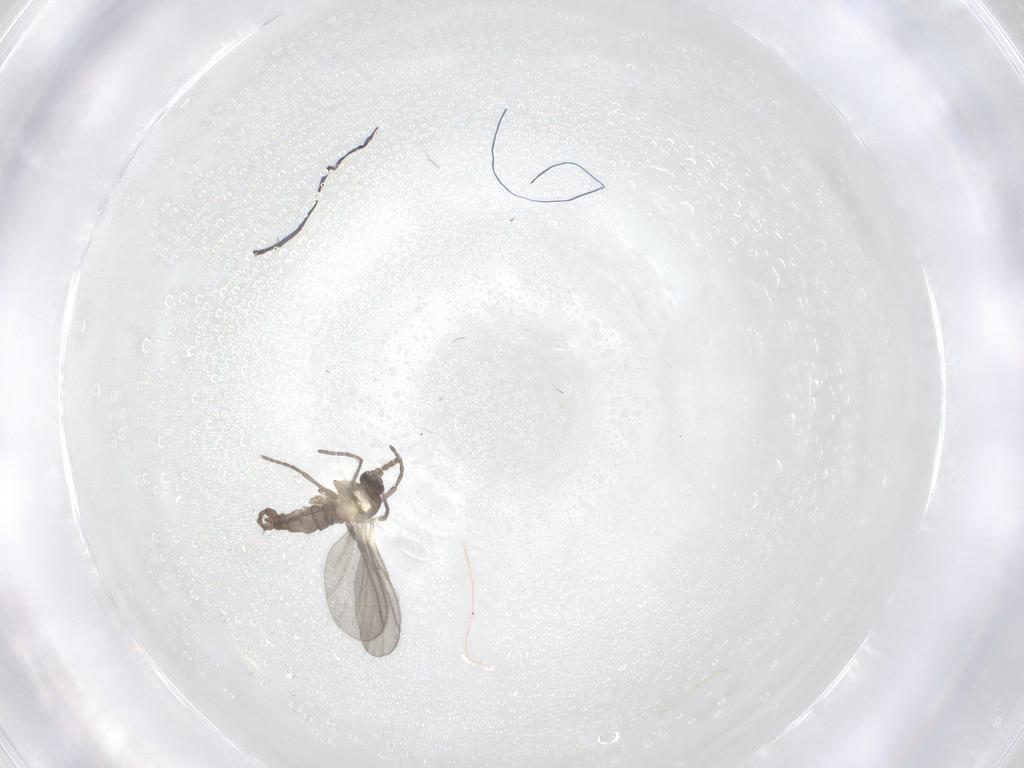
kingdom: Animalia
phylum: Arthropoda
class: Insecta
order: Diptera
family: Sciaridae
